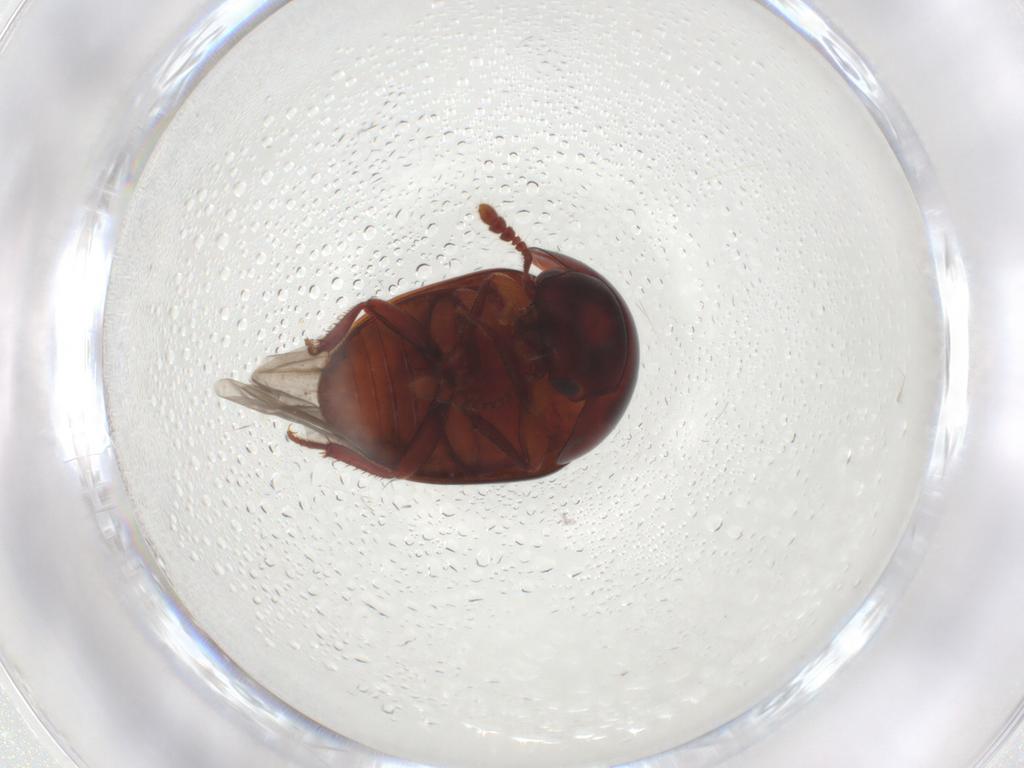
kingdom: Animalia
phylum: Arthropoda
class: Insecta
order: Coleoptera
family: Leiodidae
